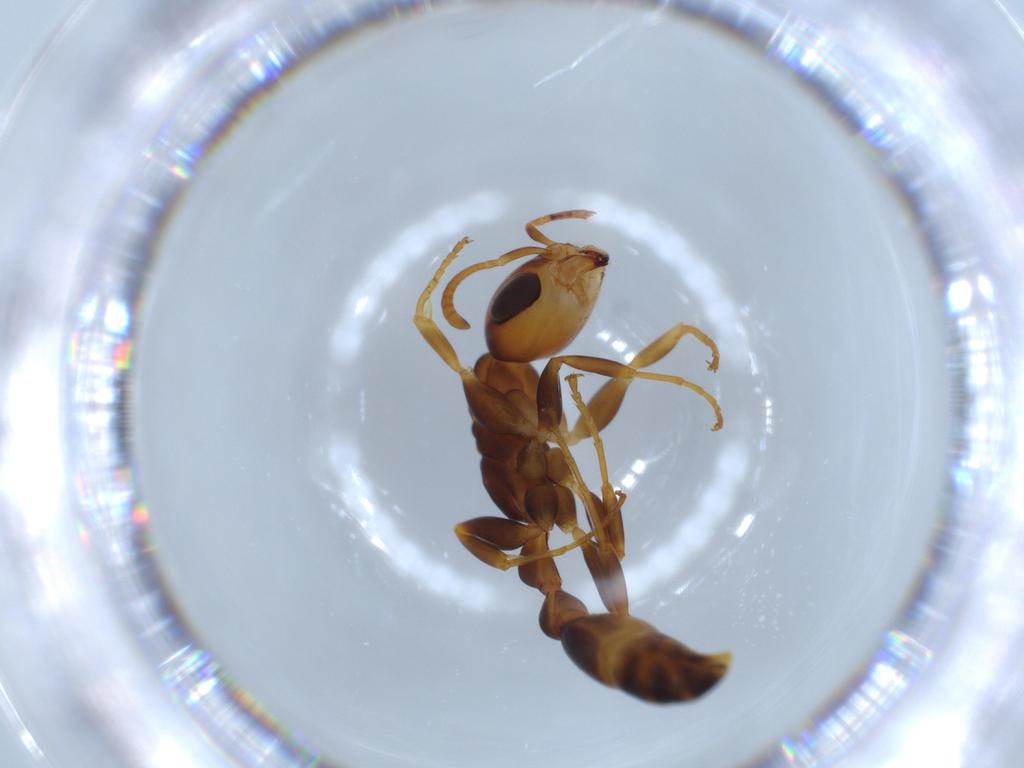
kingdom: Animalia
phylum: Arthropoda
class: Insecta
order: Hymenoptera
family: Formicidae
